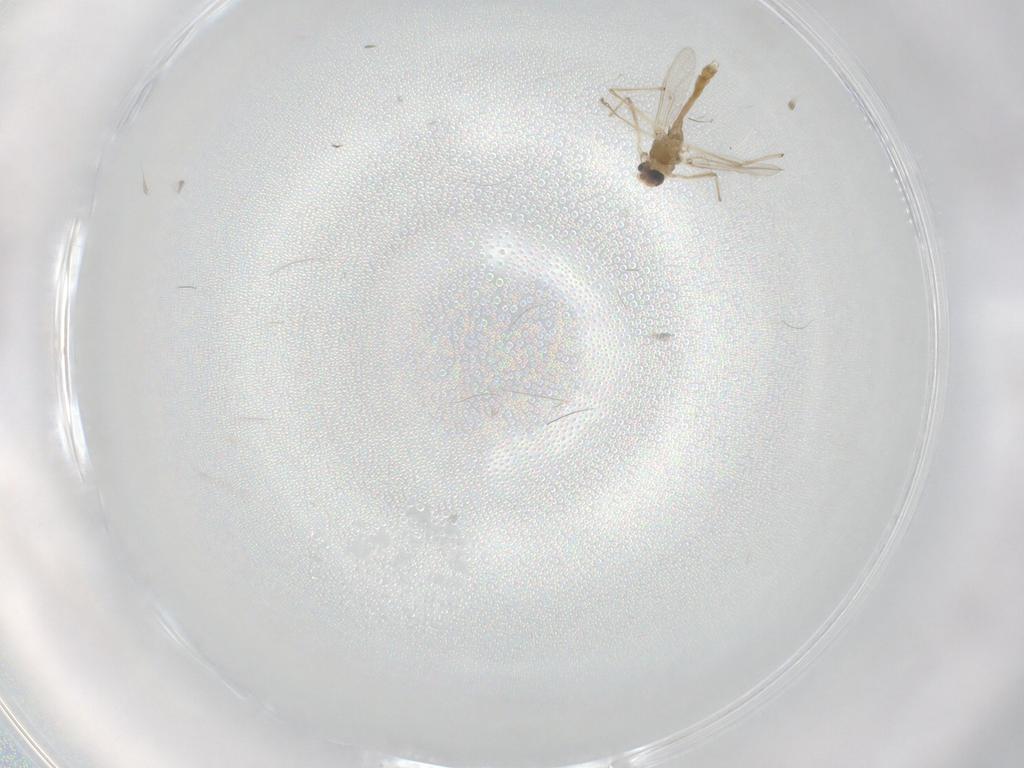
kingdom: Animalia
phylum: Arthropoda
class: Insecta
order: Diptera
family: Chironomidae
